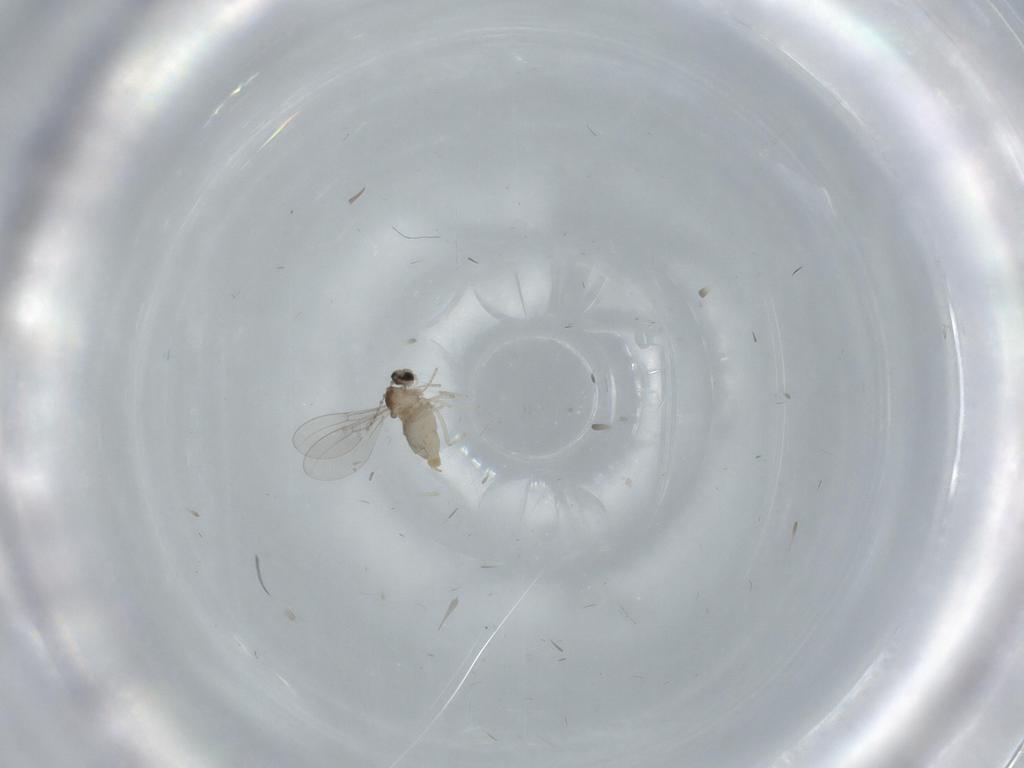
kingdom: Animalia
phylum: Arthropoda
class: Insecta
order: Diptera
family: Cecidomyiidae
